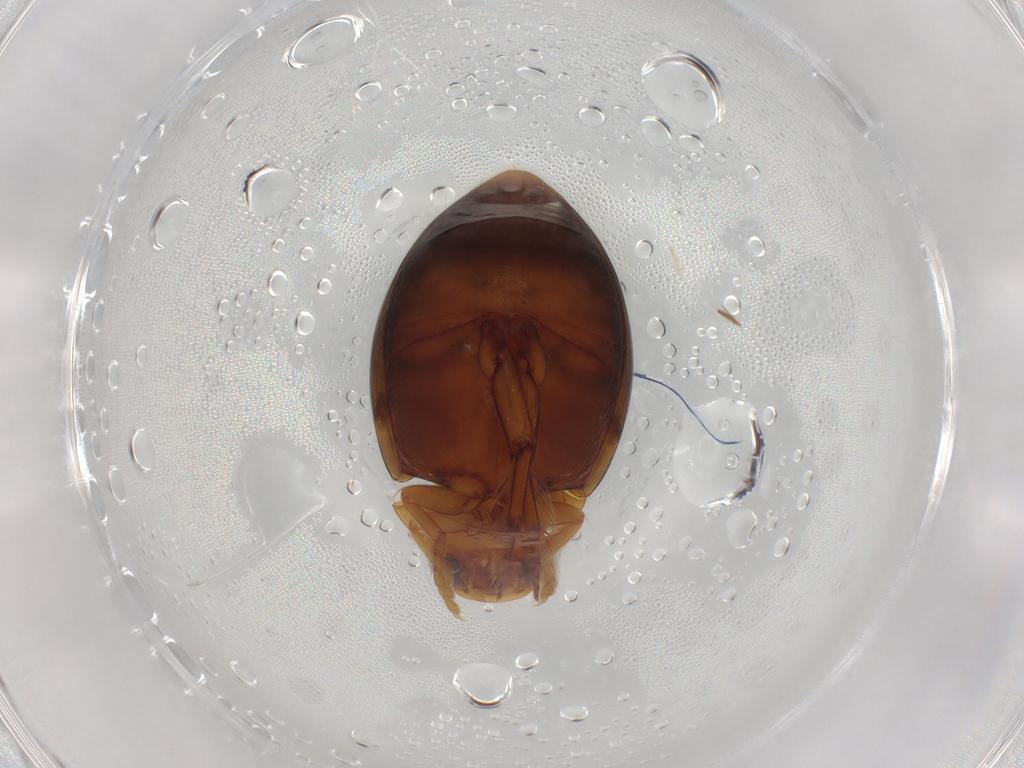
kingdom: Animalia
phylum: Arthropoda
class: Insecta
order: Coleoptera
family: Dytiscidae
